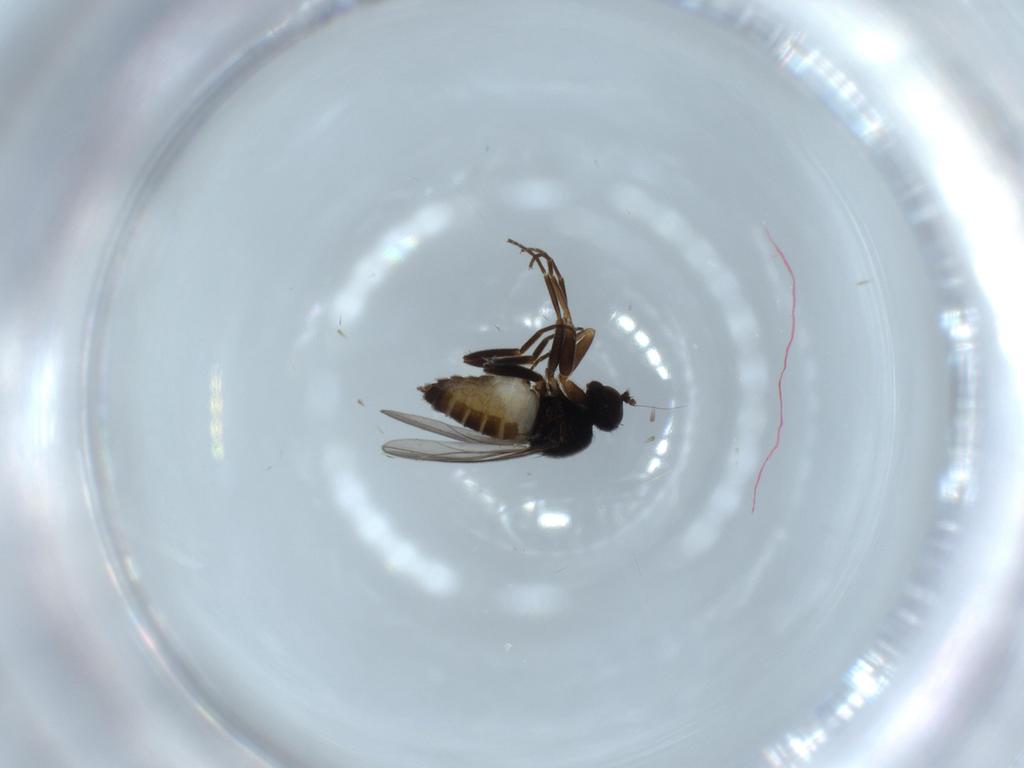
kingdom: Animalia
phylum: Arthropoda
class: Insecta
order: Diptera
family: Hybotidae
